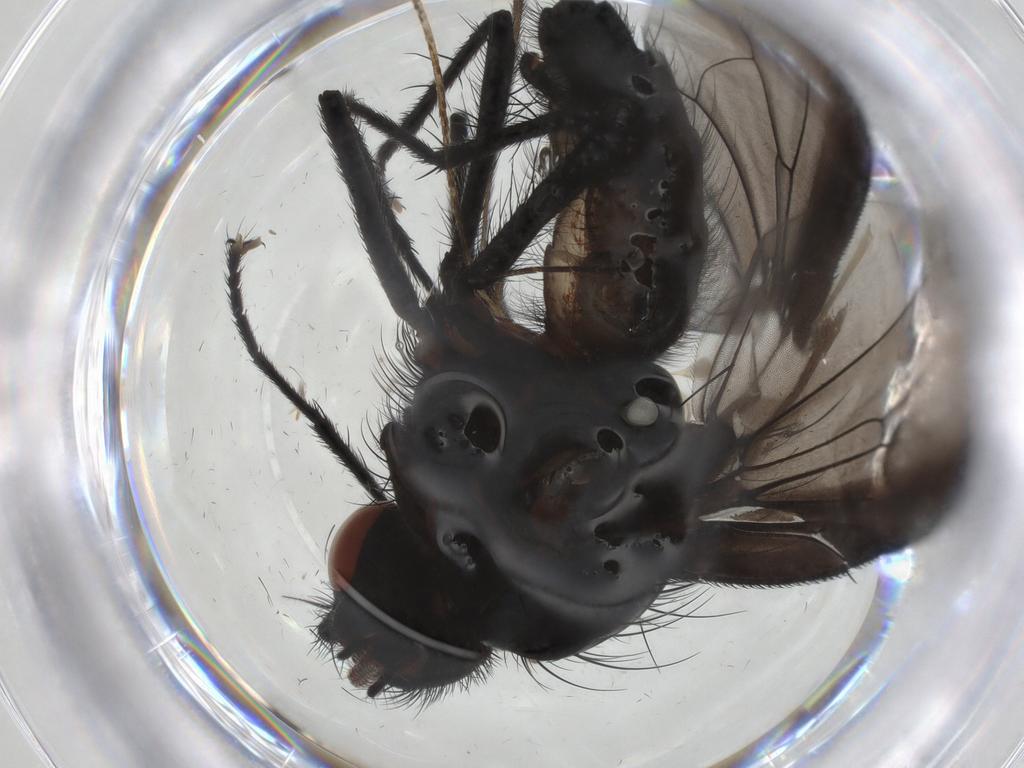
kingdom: Animalia
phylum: Arthropoda
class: Insecta
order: Diptera
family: Anthomyiidae
